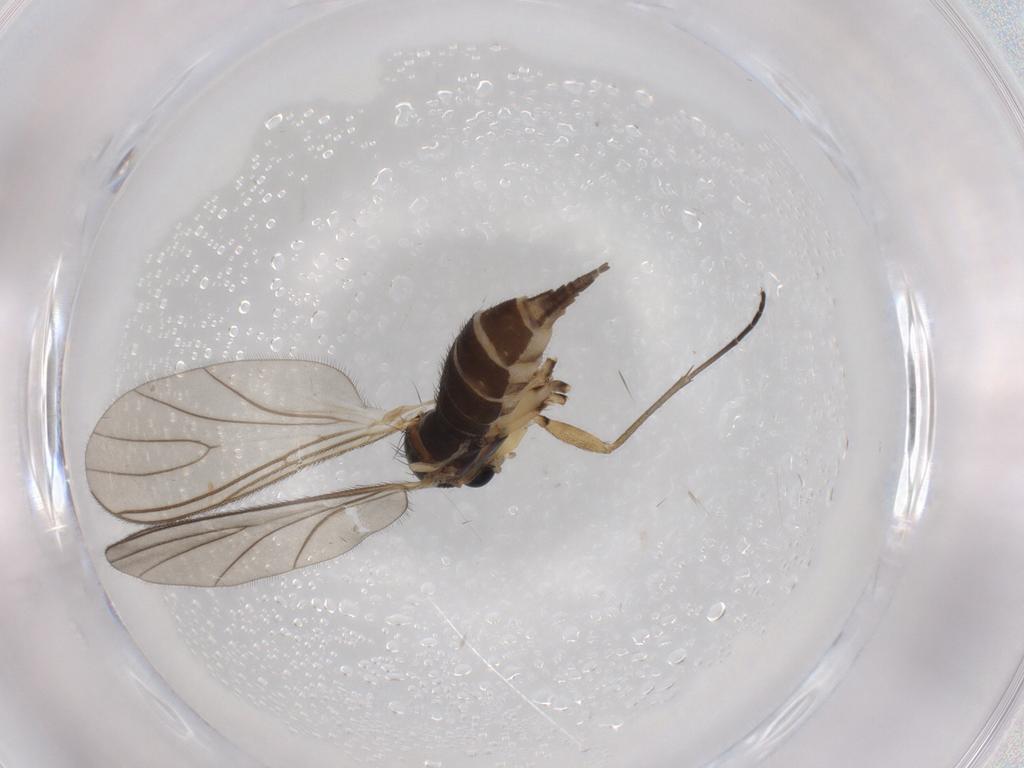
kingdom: Animalia
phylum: Arthropoda
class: Insecta
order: Diptera
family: Sciaridae
